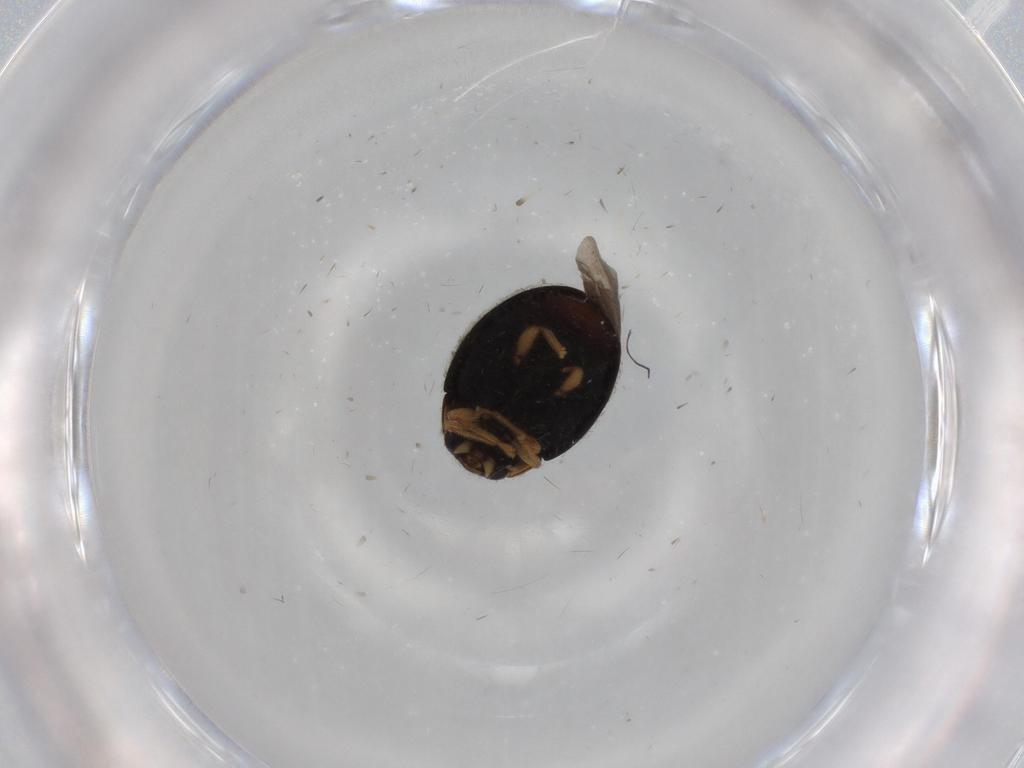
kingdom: Animalia
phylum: Arthropoda
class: Insecta
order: Coleoptera
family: Coccinellidae
